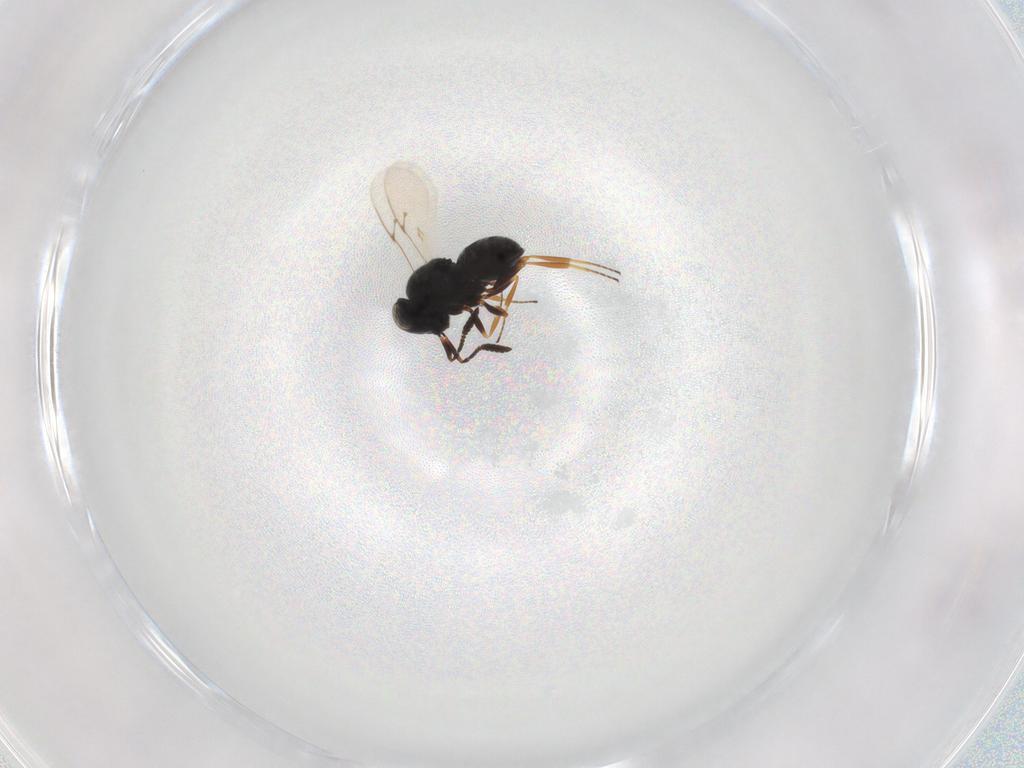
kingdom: Animalia
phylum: Arthropoda
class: Insecta
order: Hymenoptera
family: Scelionidae
